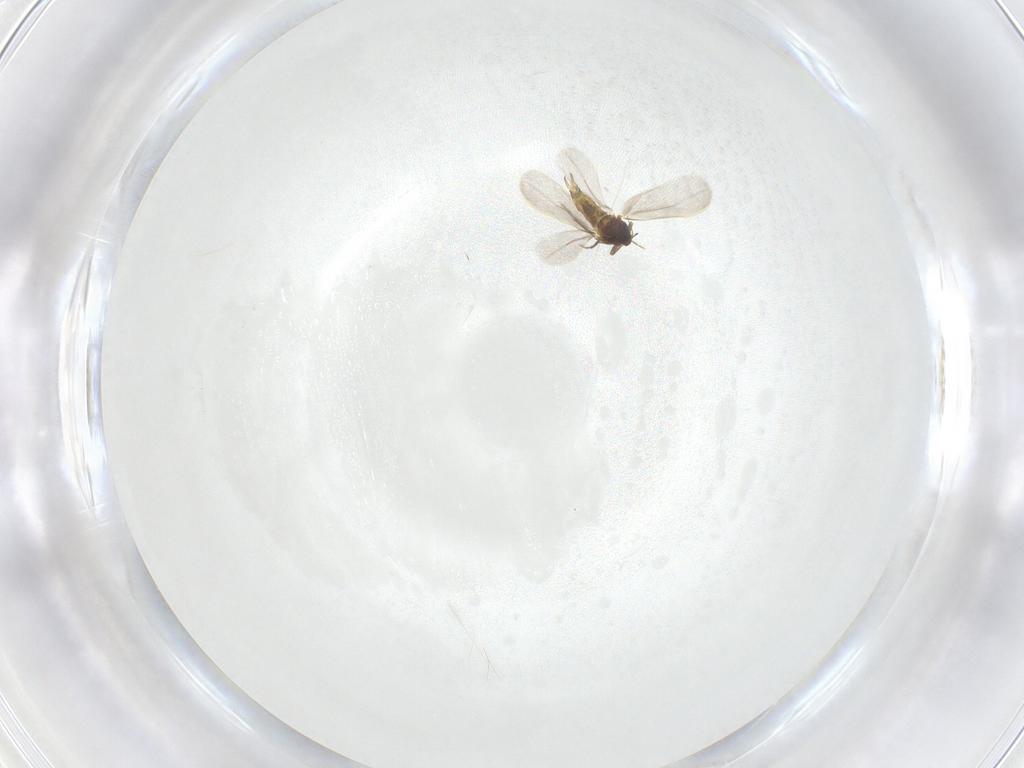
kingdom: Animalia
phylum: Arthropoda
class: Insecta
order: Hemiptera
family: Aleyrodidae
